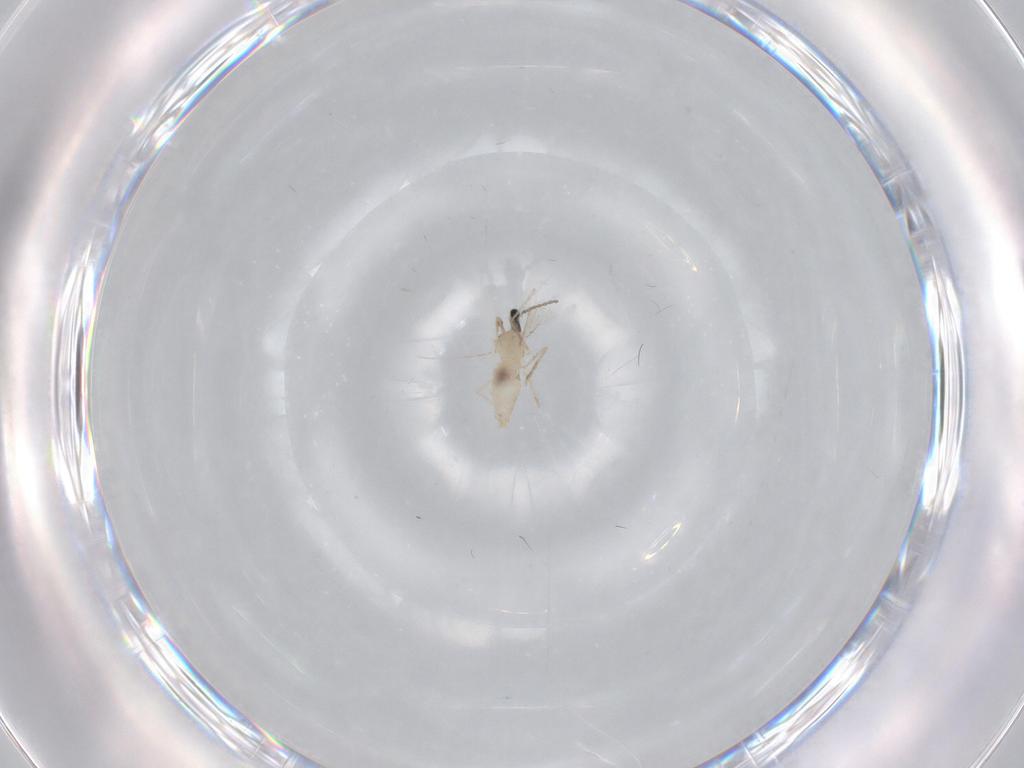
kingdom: Animalia
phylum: Arthropoda
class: Insecta
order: Diptera
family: Cecidomyiidae
